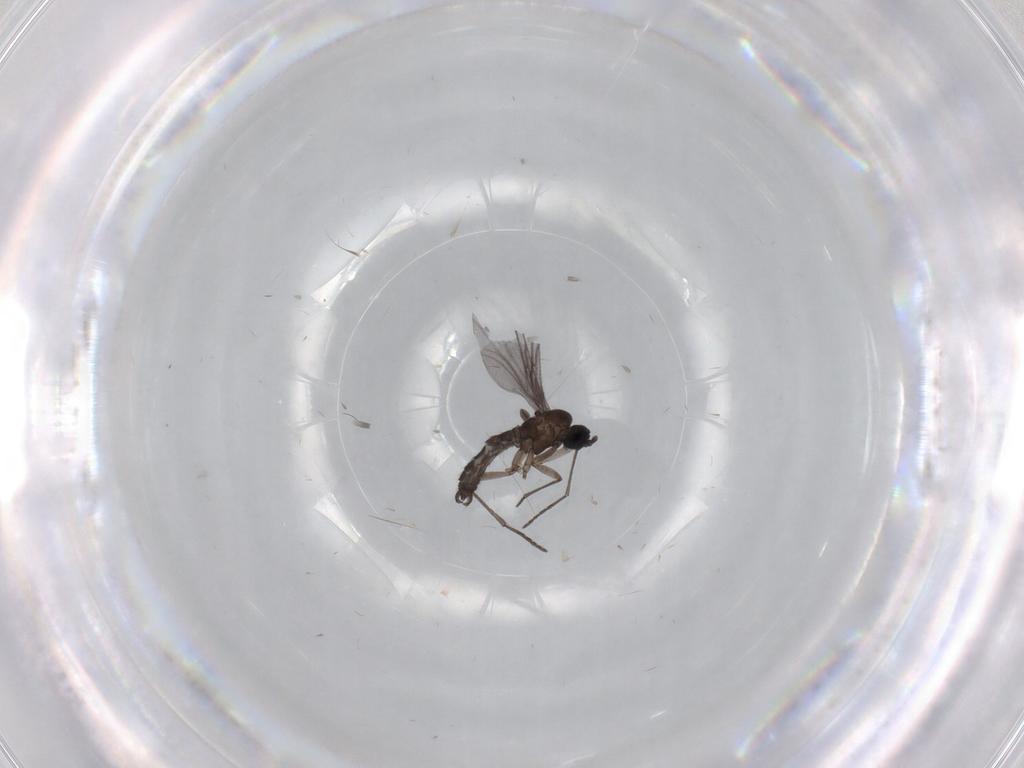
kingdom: Animalia
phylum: Arthropoda
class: Insecta
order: Diptera
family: Sciaridae
